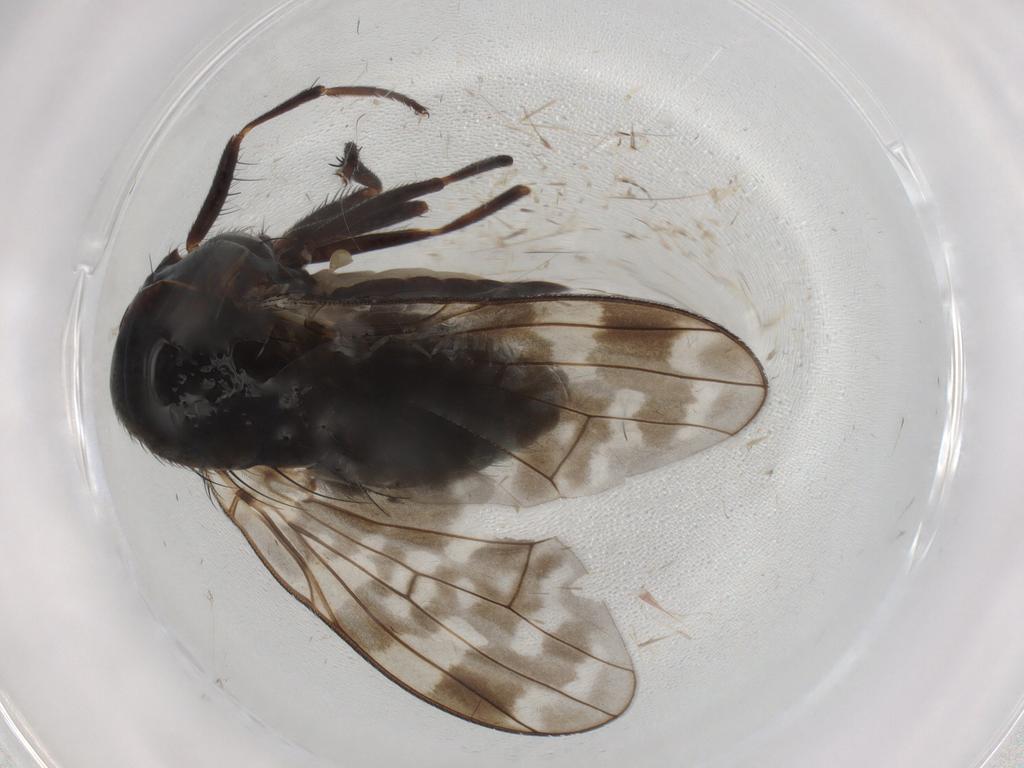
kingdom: Animalia
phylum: Arthropoda
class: Insecta
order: Diptera
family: Cecidomyiidae
